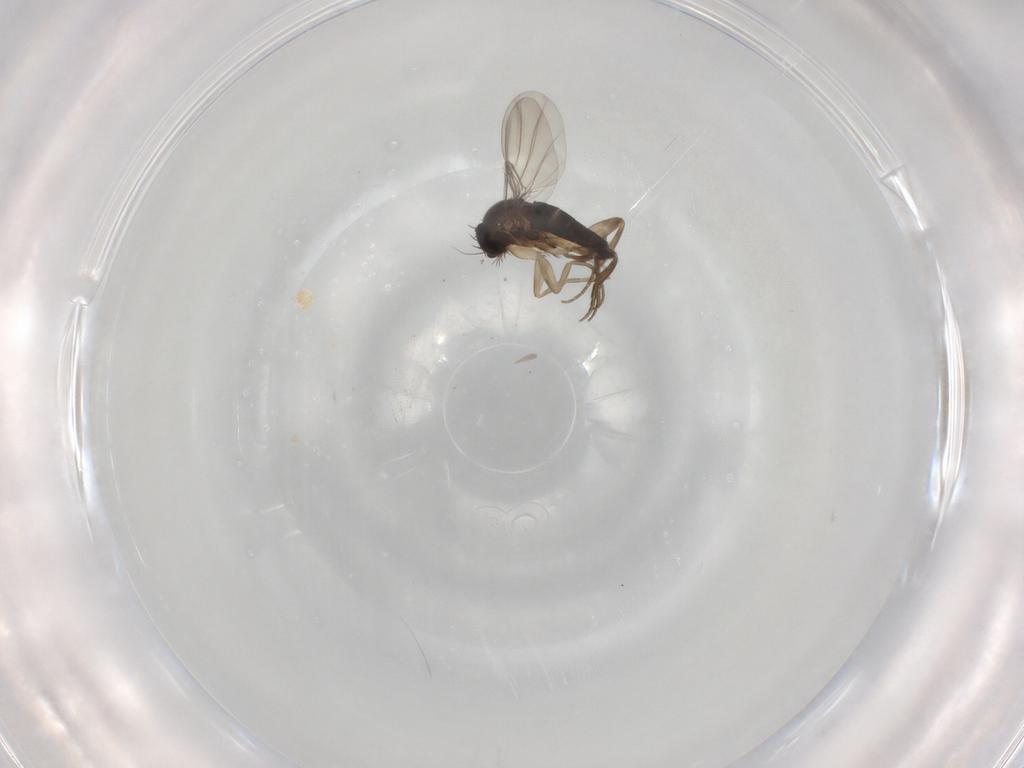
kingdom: Animalia
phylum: Arthropoda
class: Insecta
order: Diptera
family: Phoridae
